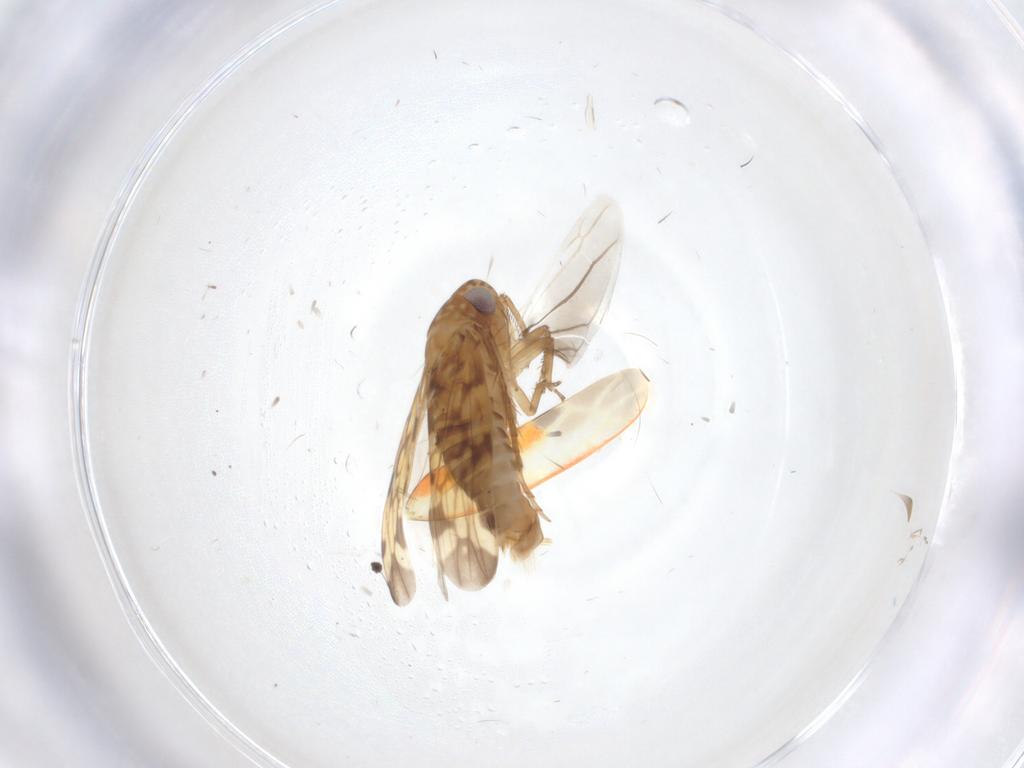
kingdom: Animalia
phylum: Arthropoda
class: Insecta
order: Hemiptera
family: Cicadellidae
